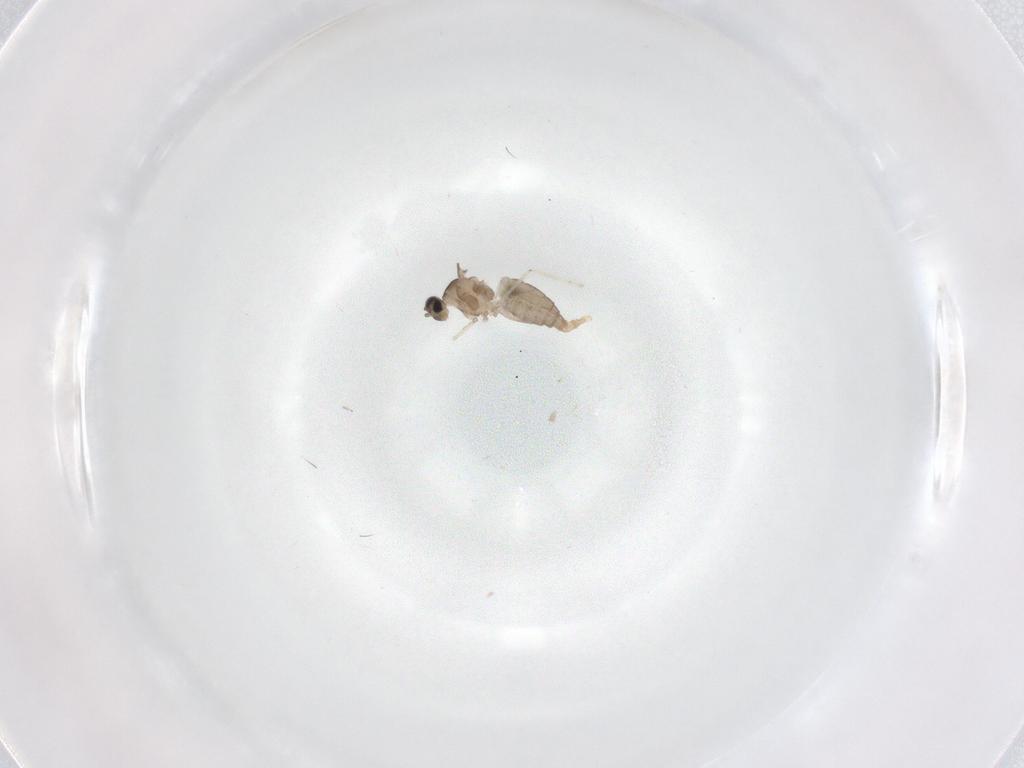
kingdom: Animalia
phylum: Arthropoda
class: Insecta
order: Diptera
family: Cecidomyiidae
